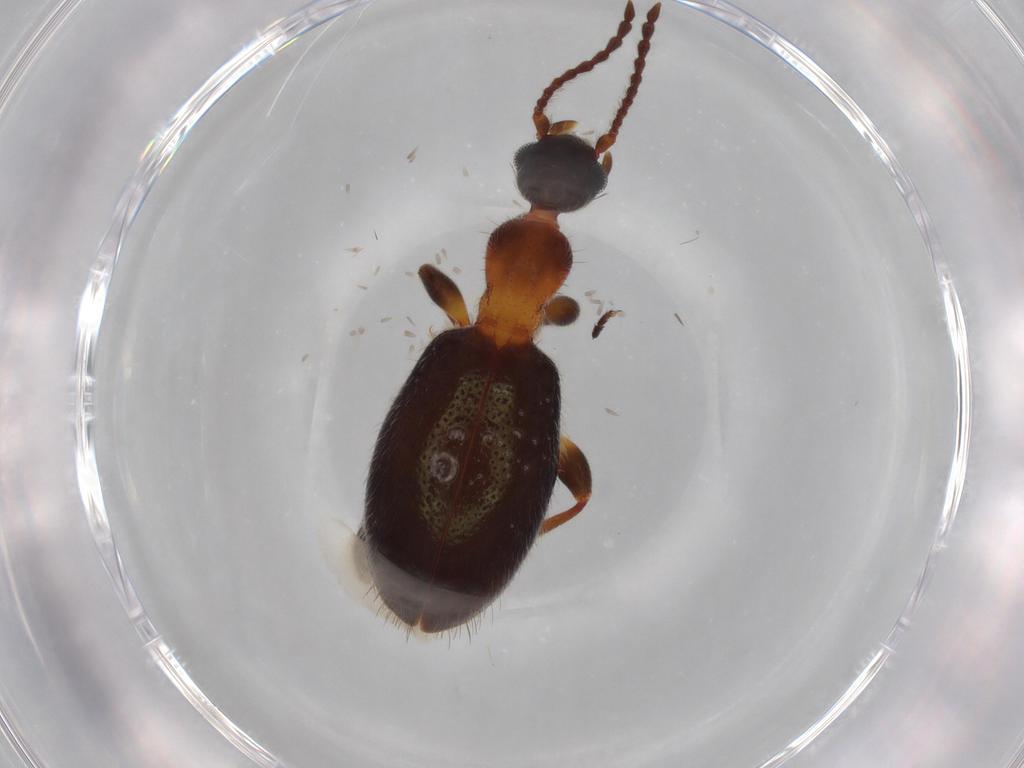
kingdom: Animalia
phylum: Arthropoda
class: Insecta
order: Coleoptera
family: Anthicidae
